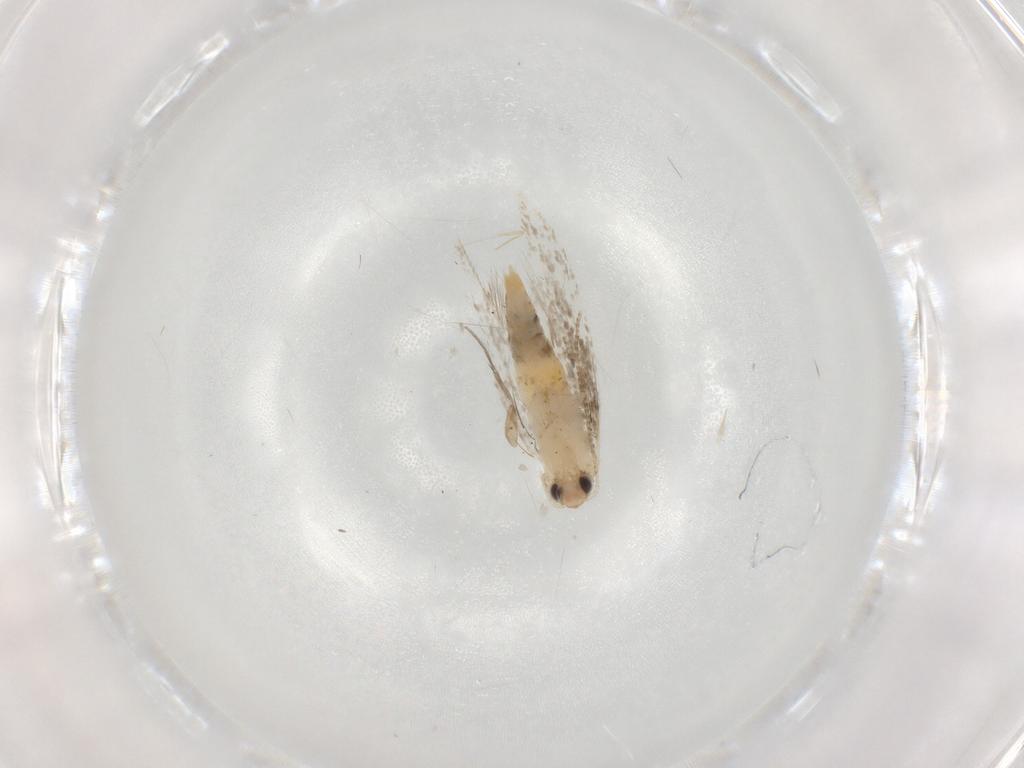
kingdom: Animalia
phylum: Arthropoda
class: Insecta
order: Lepidoptera
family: Tineidae
